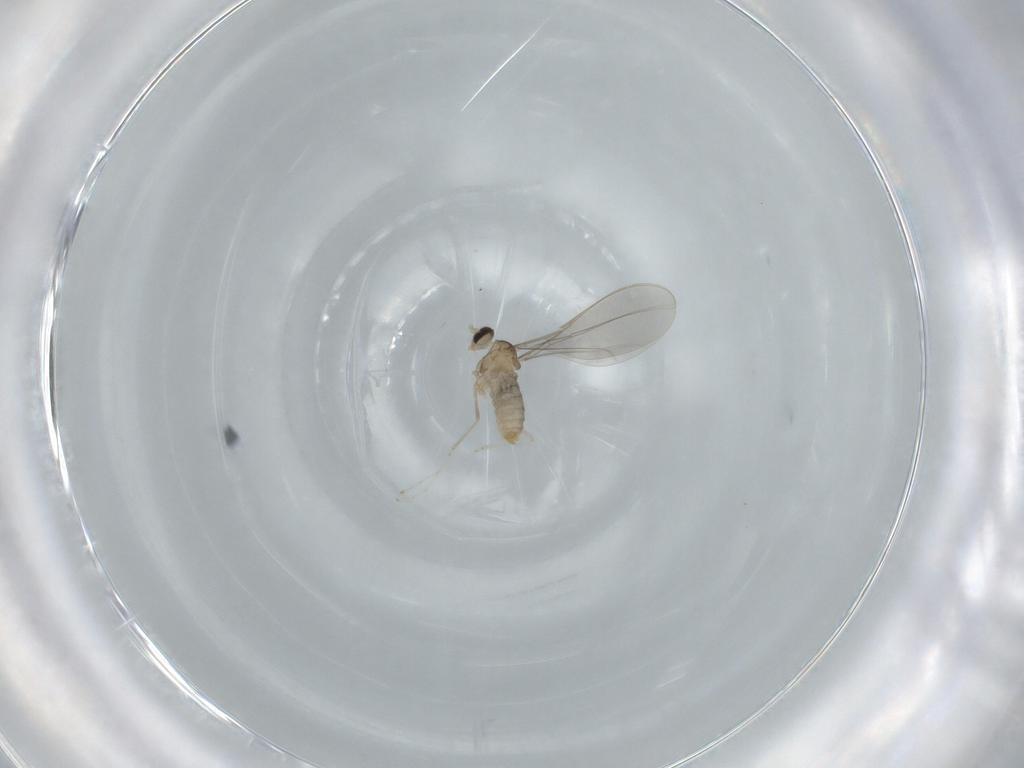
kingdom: Animalia
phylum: Arthropoda
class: Insecta
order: Diptera
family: Cecidomyiidae
